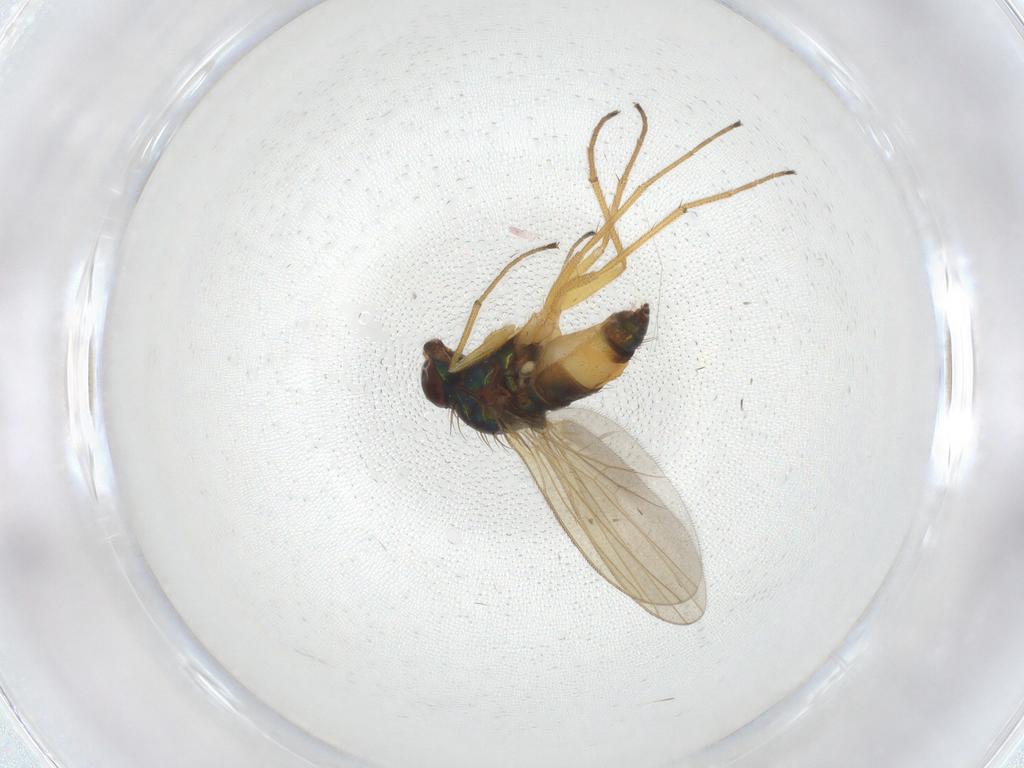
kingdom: Animalia
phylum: Arthropoda
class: Insecta
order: Diptera
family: Dolichopodidae
